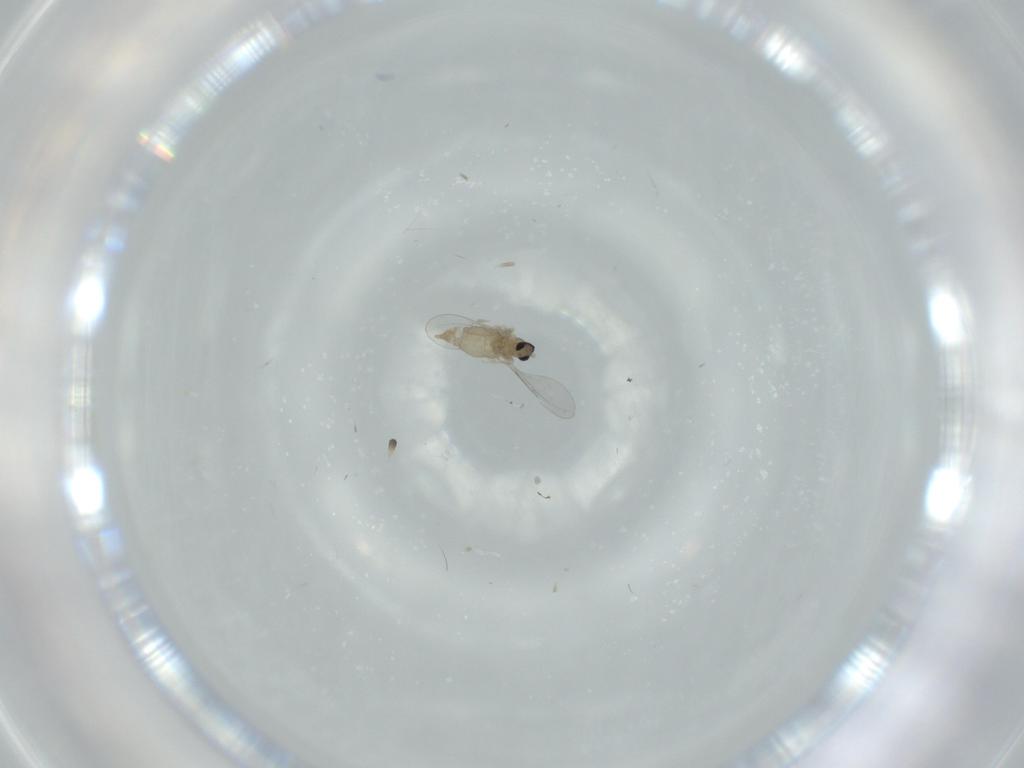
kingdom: Animalia
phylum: Arthropoda
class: Insecta
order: Diptera
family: Cecidomyiidae
